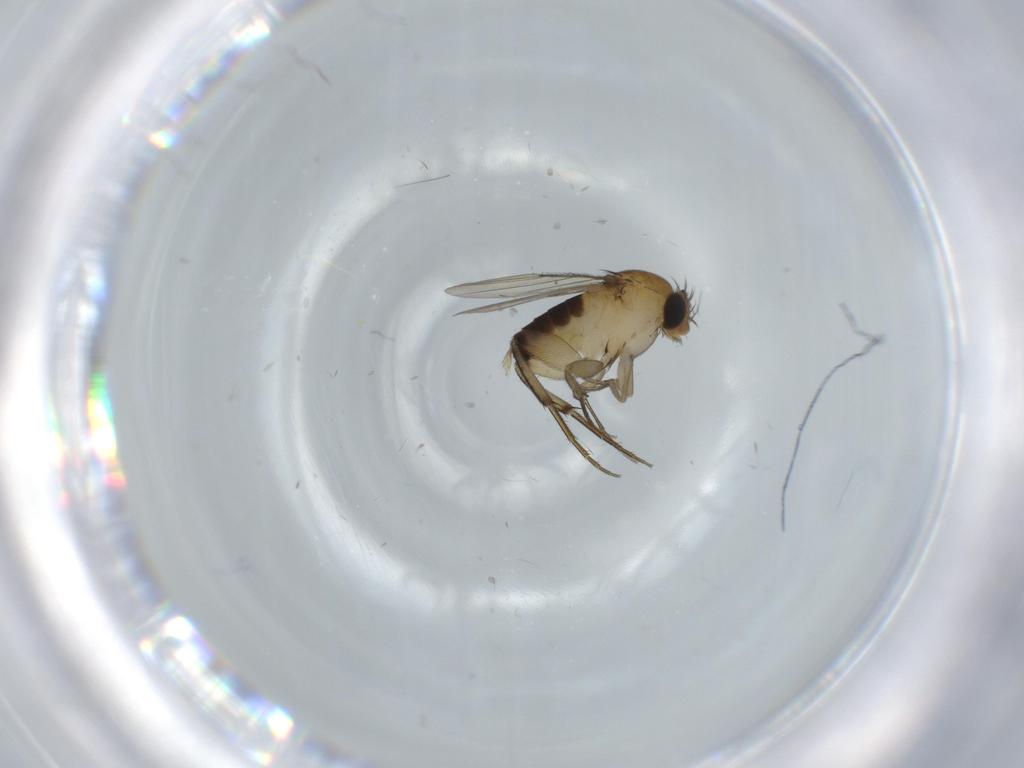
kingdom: Animalia
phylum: Arthropoda
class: Insecta
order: Diptera
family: Phoridae
